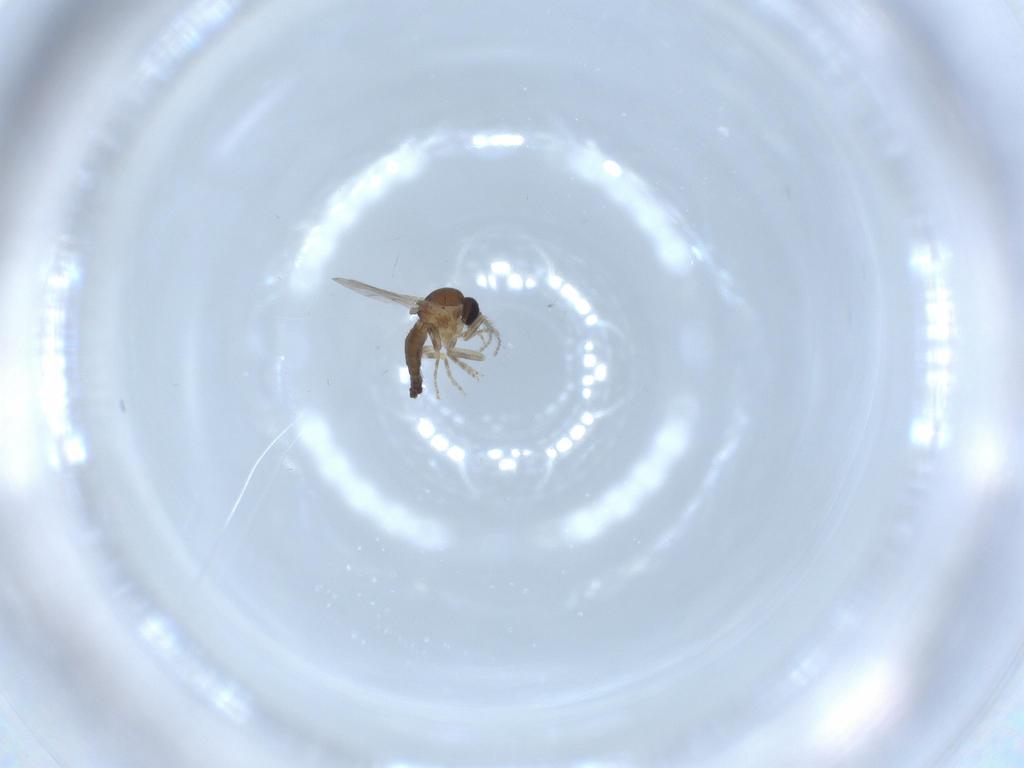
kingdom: Animalia
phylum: Arthropoda
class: Insecta
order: Diptera
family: Ceratopogonidae
